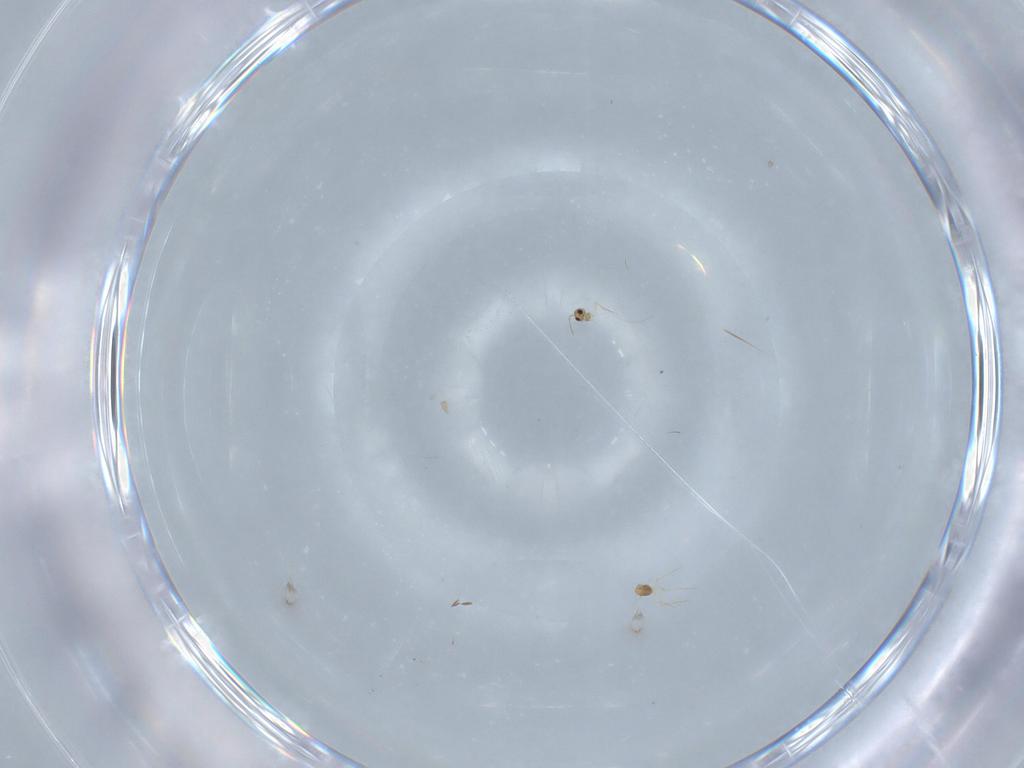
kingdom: Animalia
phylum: Arthropoda
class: Insecta
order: Diptera
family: Cecidomyiidae
